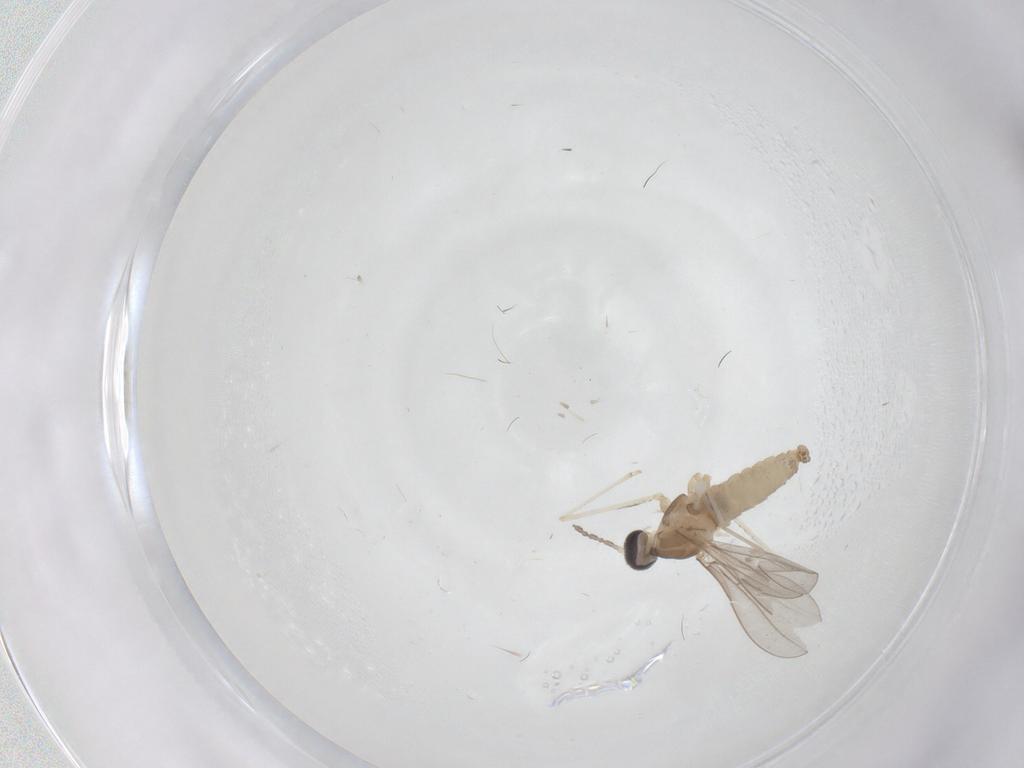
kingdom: Animalia
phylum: Arthropoda
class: Insecta
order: Diptera
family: Cecidomyiidae
